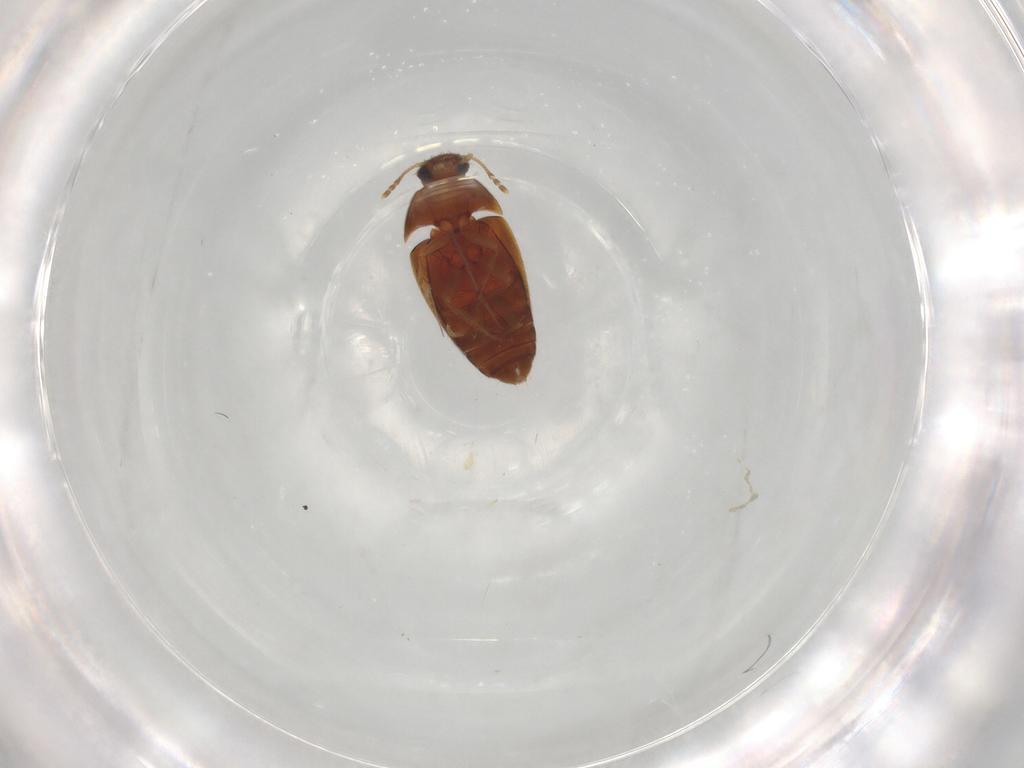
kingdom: Animalia
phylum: Arthropoda
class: Insecta
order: Coleoptera
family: Mycetophagidae
